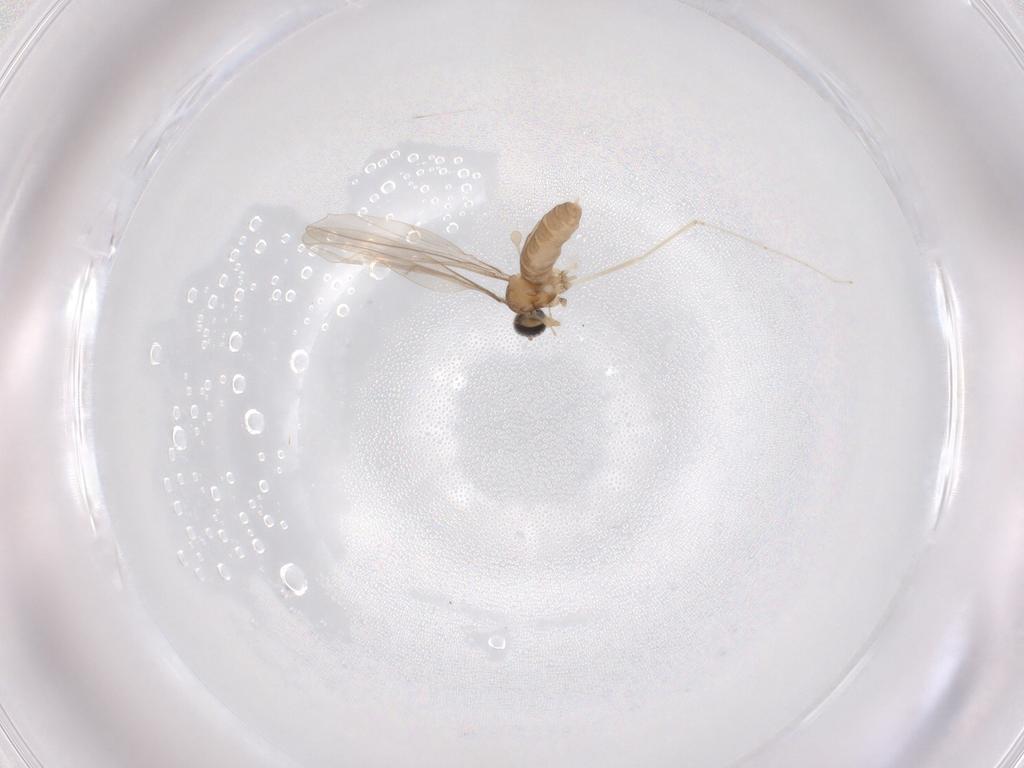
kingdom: Animalia
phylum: Arthropoda
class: Insecta
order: Diptera
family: Cecidomyiidae
